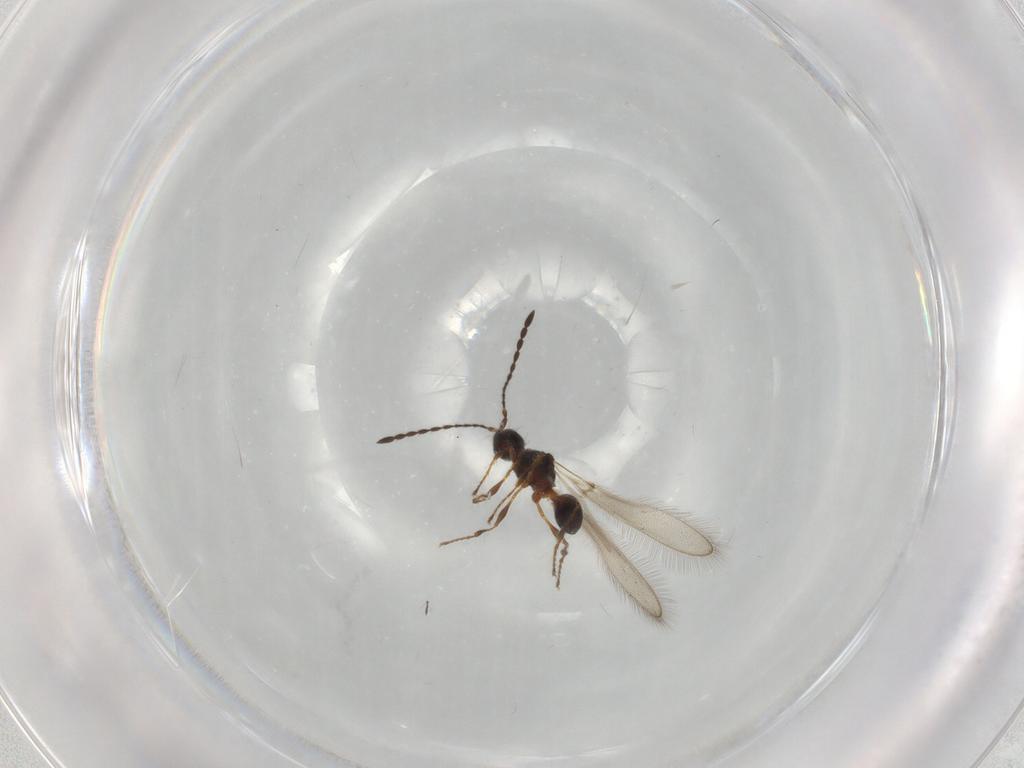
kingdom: Animalia
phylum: Arthropoda
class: Insecta
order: Hymenoptera
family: Diapriidae
